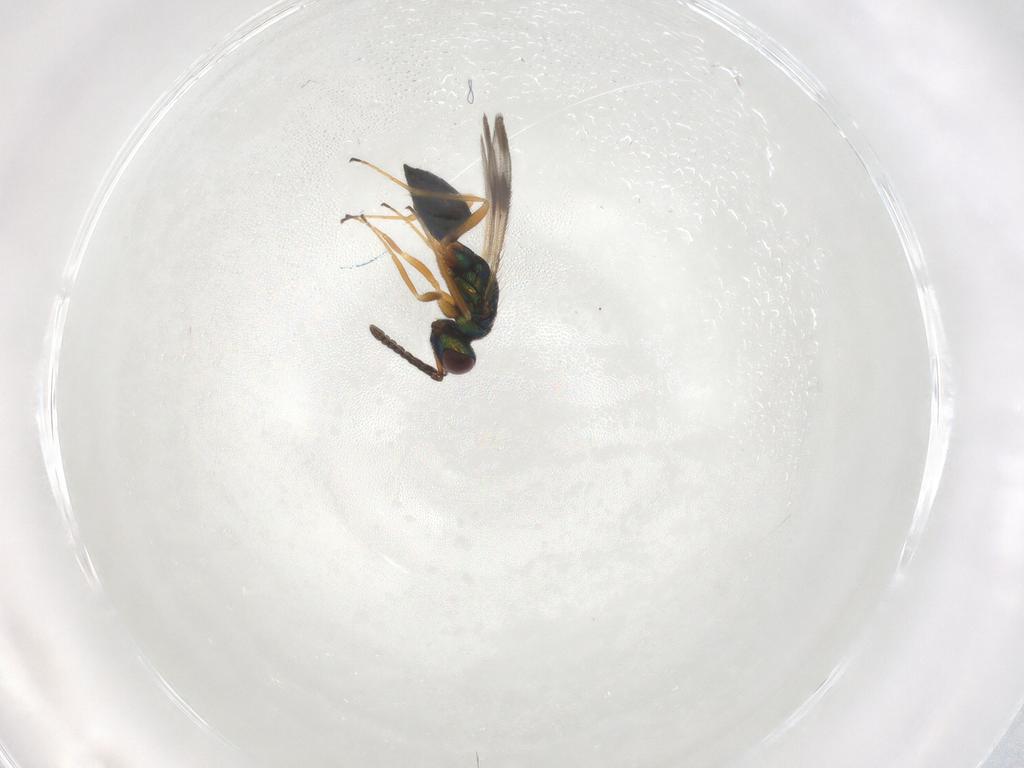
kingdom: Animalia
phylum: Arthropoda
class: Insecta
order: Hymenoptera
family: Tetracampidae
